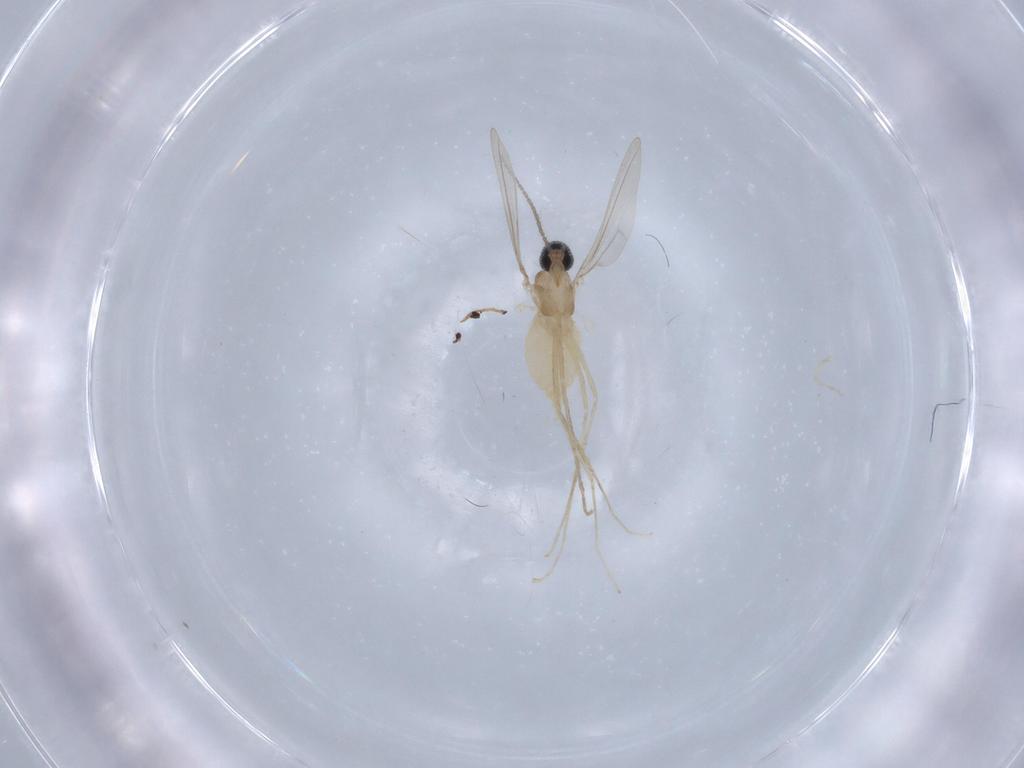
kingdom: Animalia
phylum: Arthropoda
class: Insecta
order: Diptera
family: Cecidomyiidae
